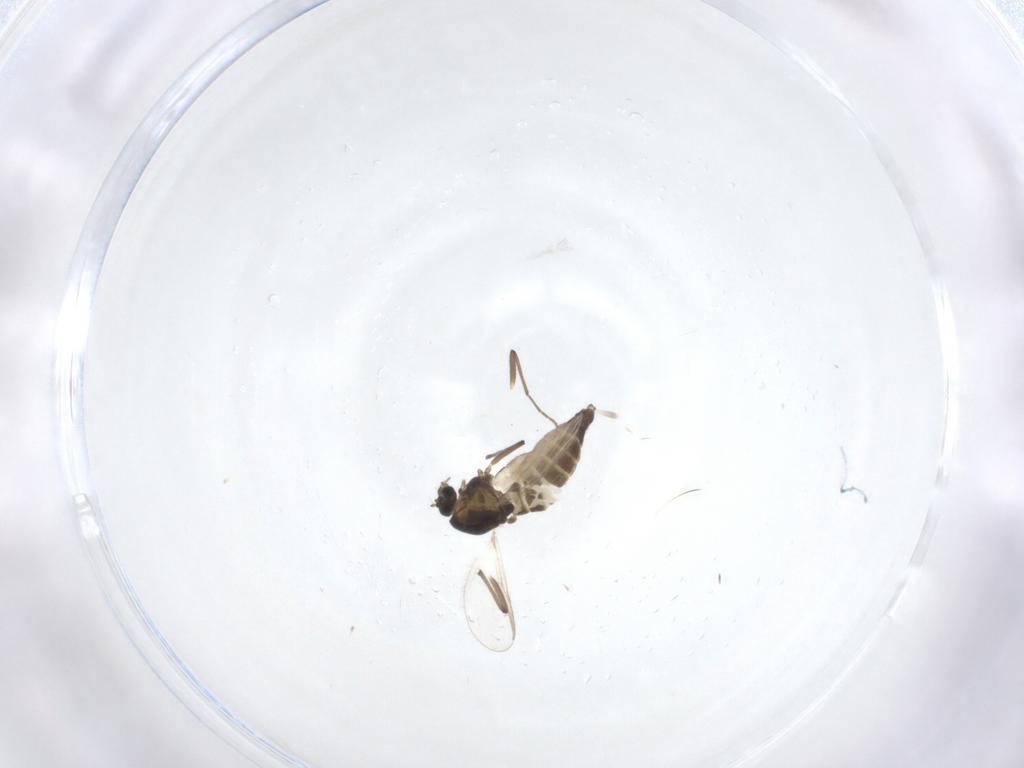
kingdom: Animalia
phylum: Arthropoda
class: Insecta
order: Diptera
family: Chironomidae
